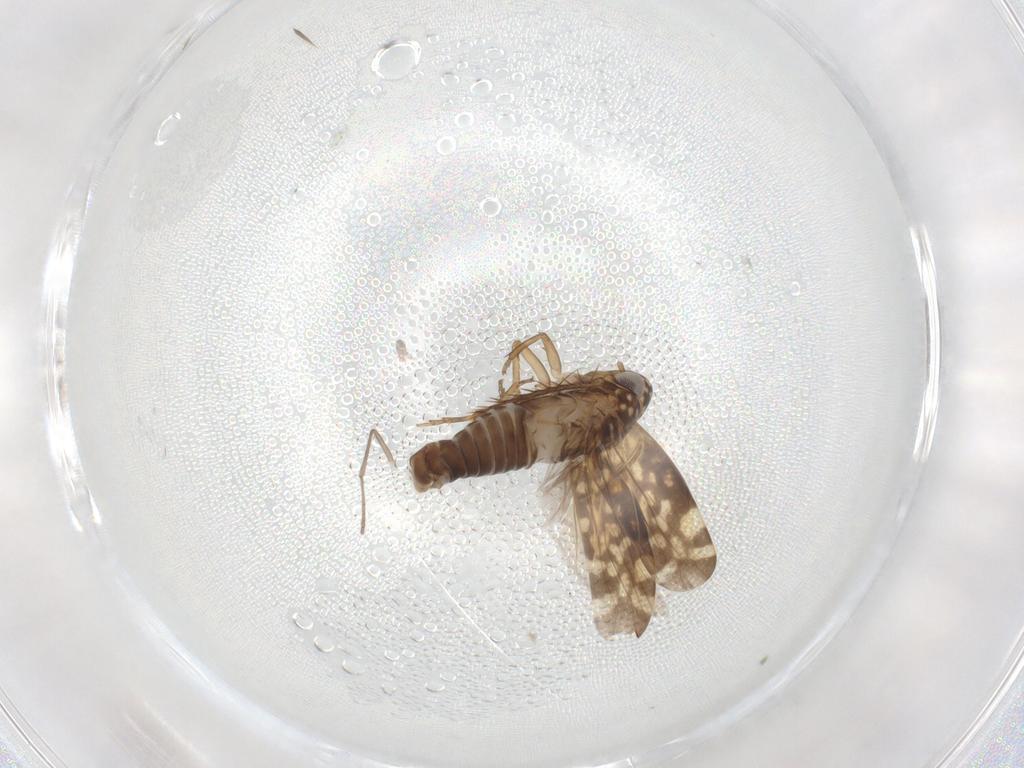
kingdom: Animalia
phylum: Arthropoda
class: Insecta
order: Hemiptera
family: Cicadellidae
